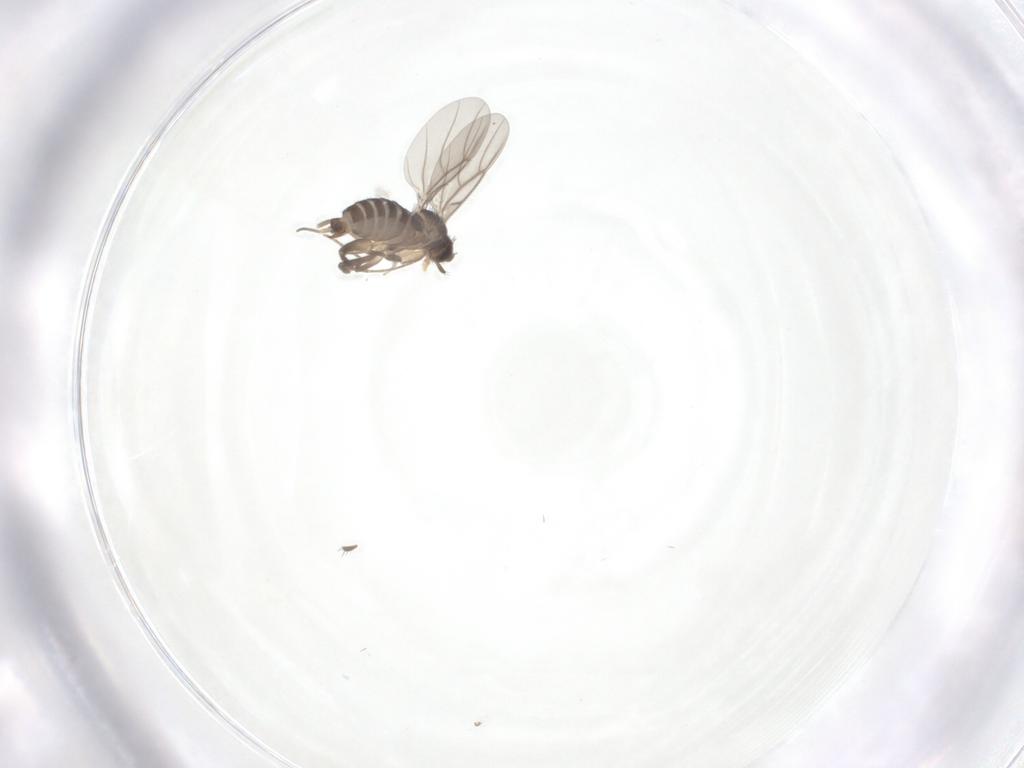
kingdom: Animalia
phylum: Arthropoda
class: Insecta
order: Diptera
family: Phoridae
